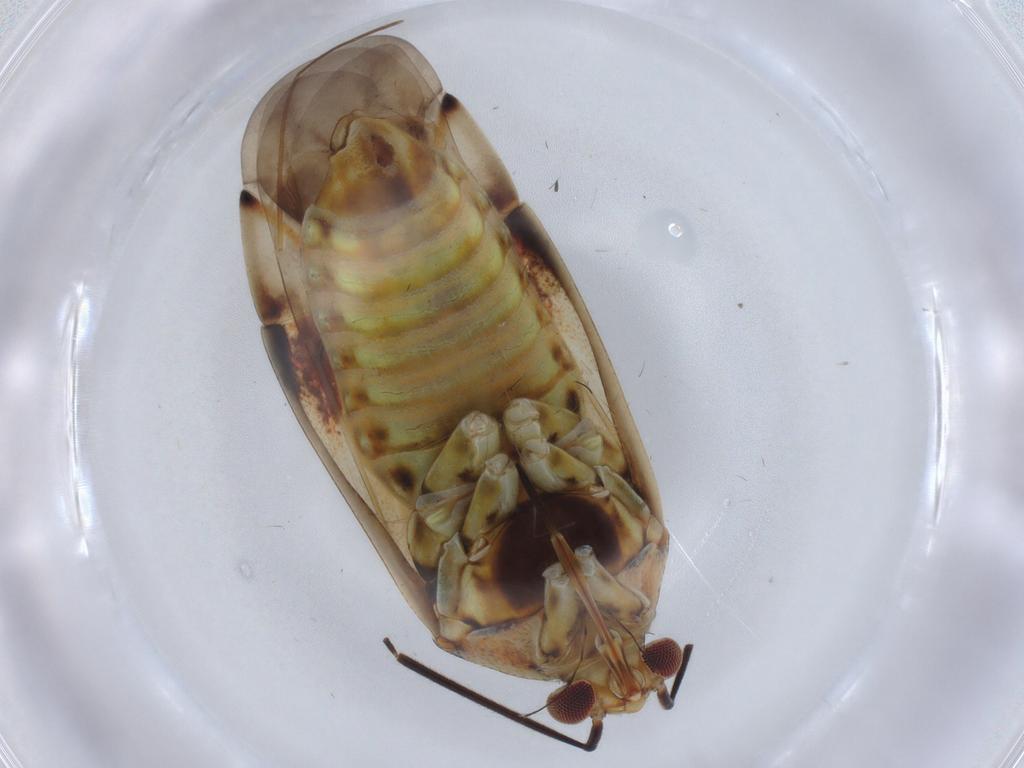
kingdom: Animalia
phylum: Arthropoda
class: Insecta
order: Hemiptera
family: Miridae
